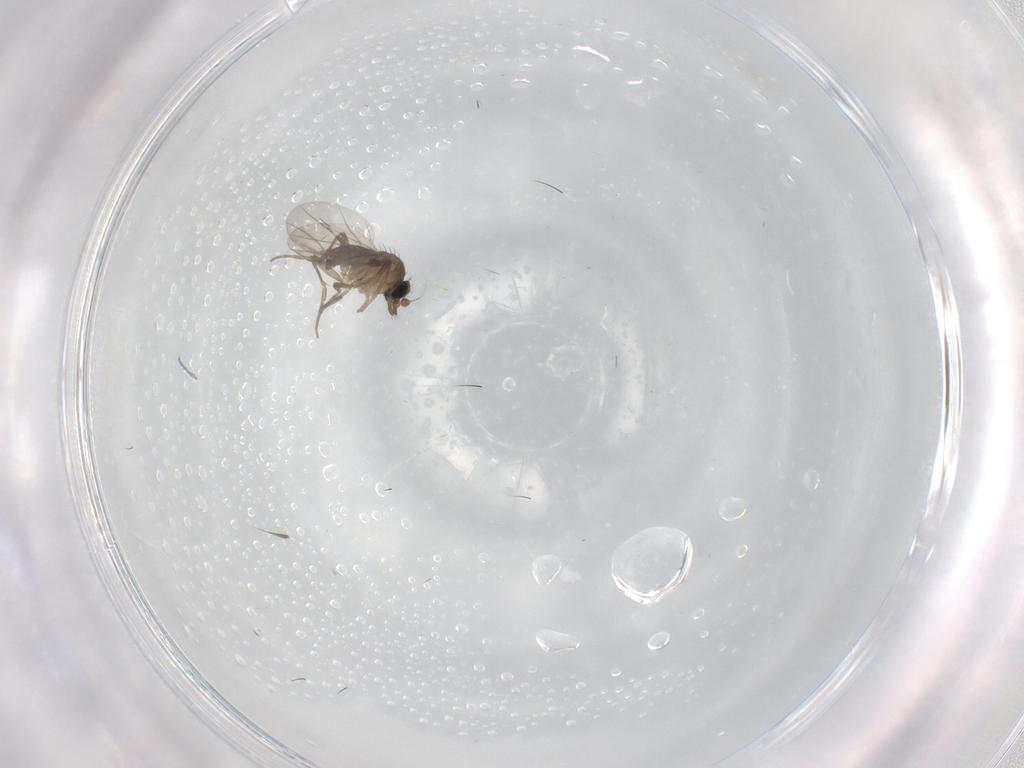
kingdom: Animalia
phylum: Arthropoda
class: Insecta
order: Diptera
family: Phoridae
